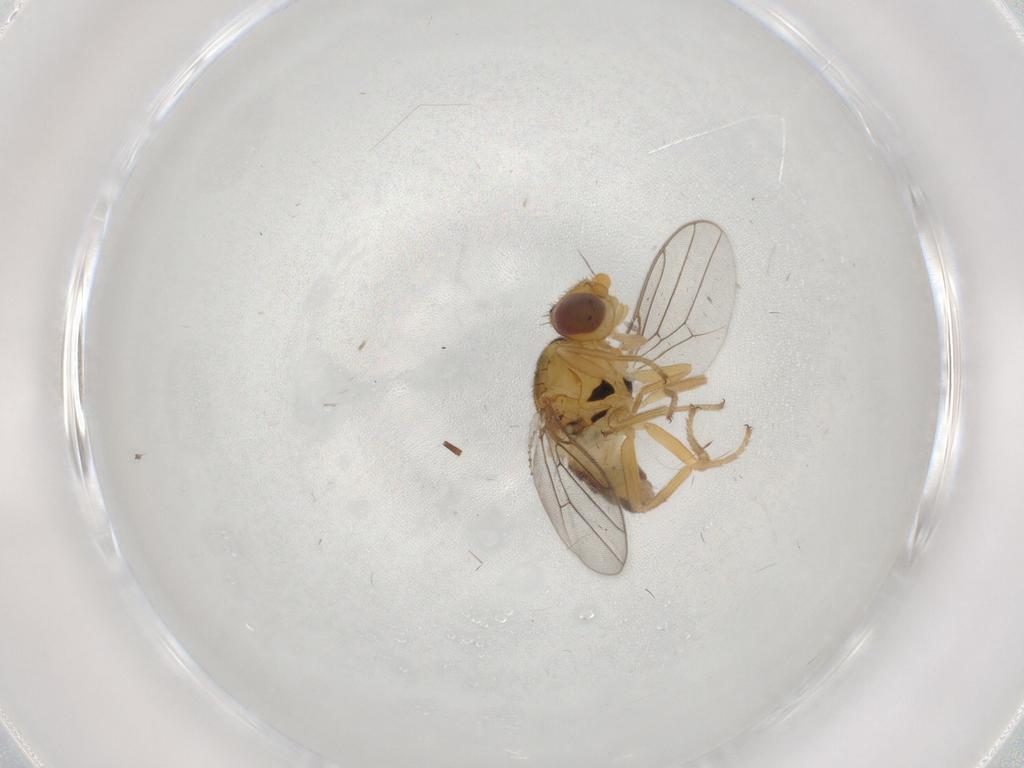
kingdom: Animalia
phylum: Arthropoda
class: Insecta
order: Diptera
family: Chloropidae
